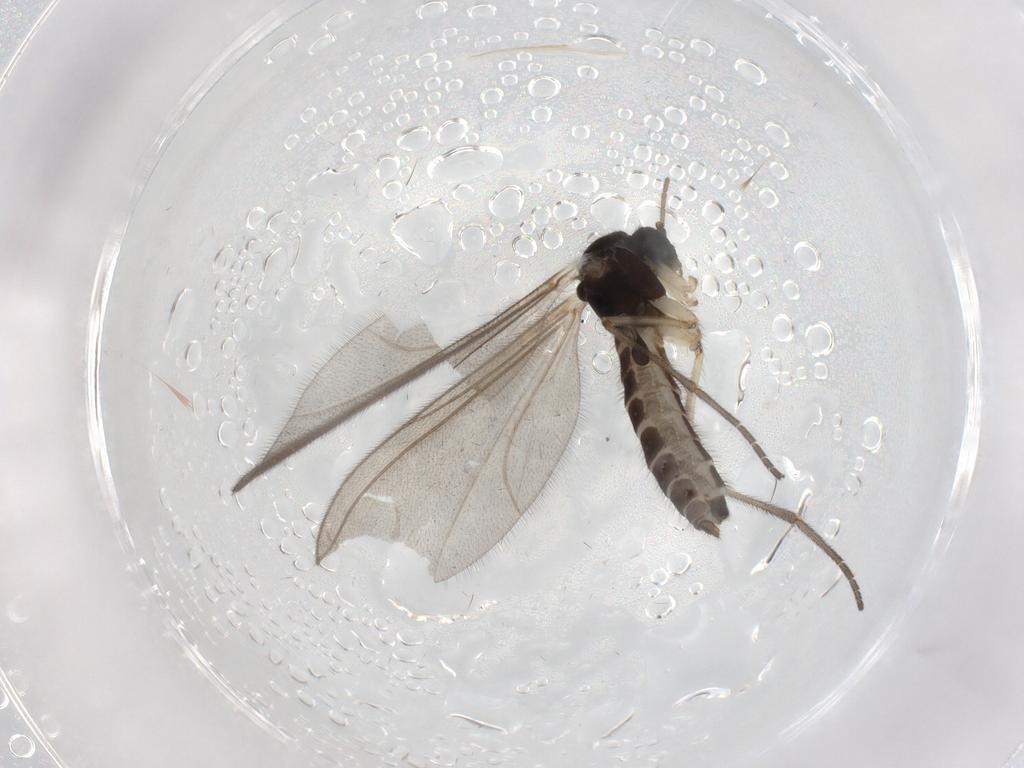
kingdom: Animalia
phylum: Arthropoda
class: Insecta
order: Diptera
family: Mycetophilidae
